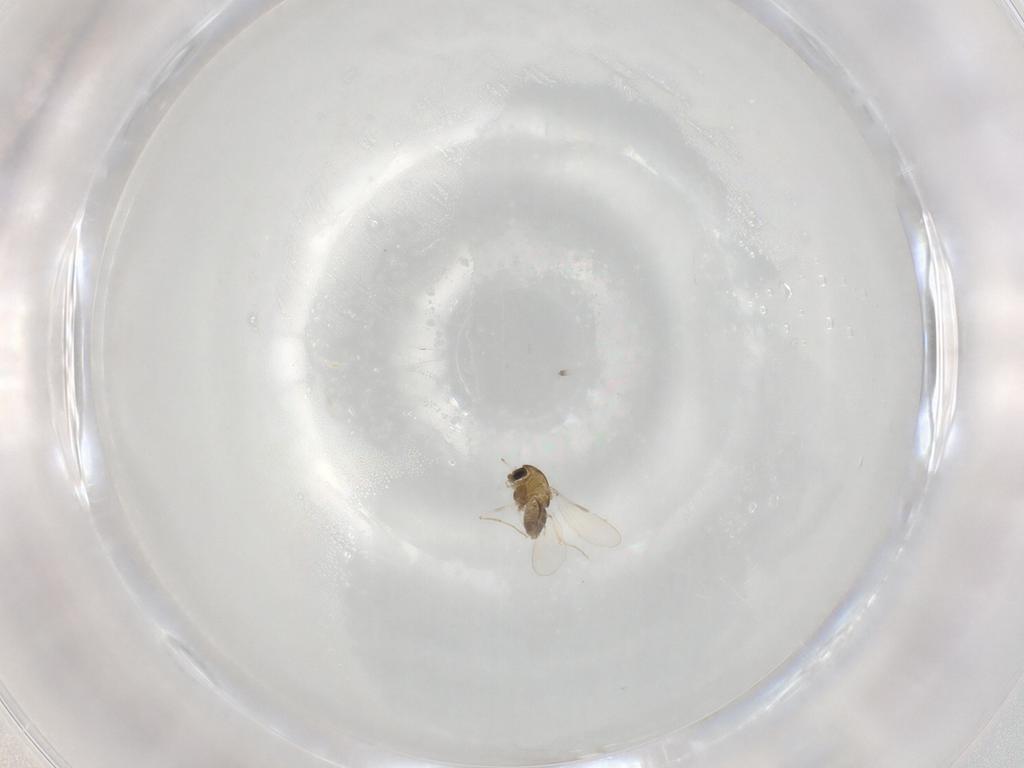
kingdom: Animalia
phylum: Arthropoda
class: Insecta
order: Diptera
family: Chironomidae
